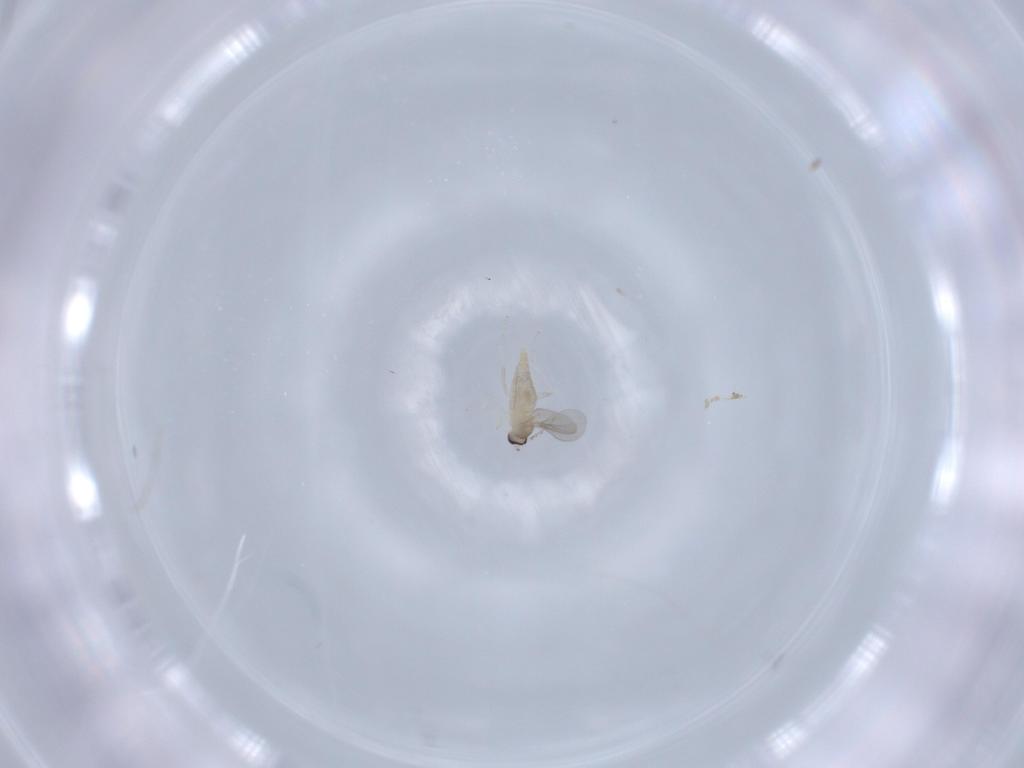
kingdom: Animalia
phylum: Arthropoda
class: Insecta
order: Diptera
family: Cecidomyiidae
